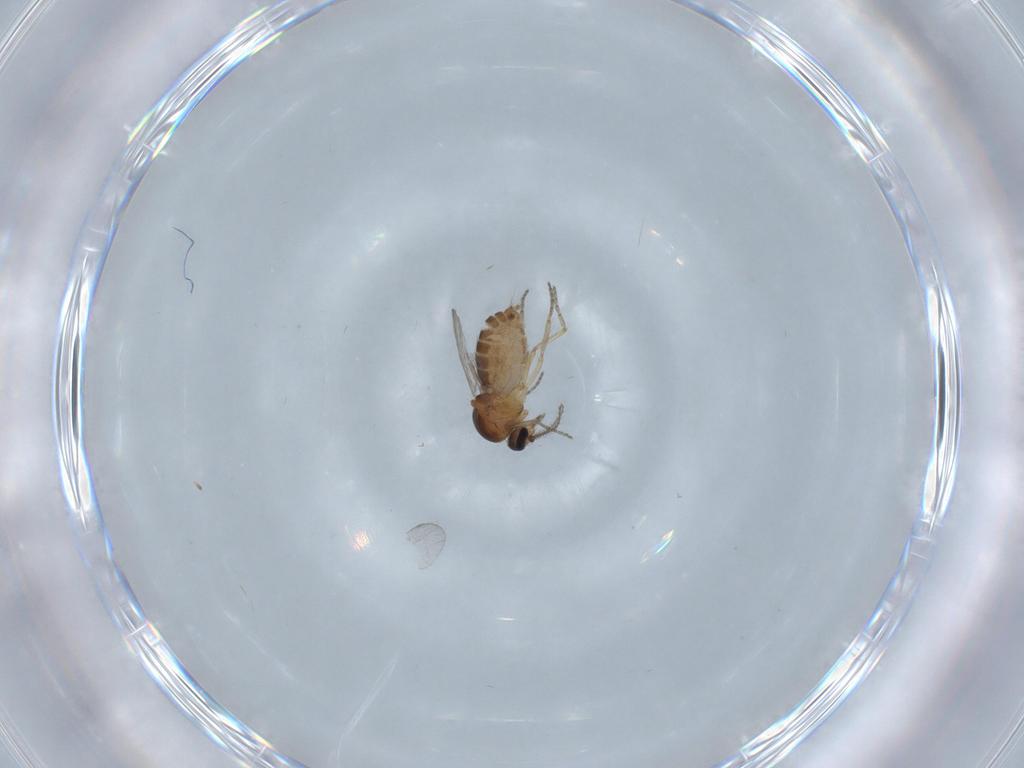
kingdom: Animalia
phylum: Arthropoda
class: Insecta
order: Diptera
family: Ceratopogonidae
